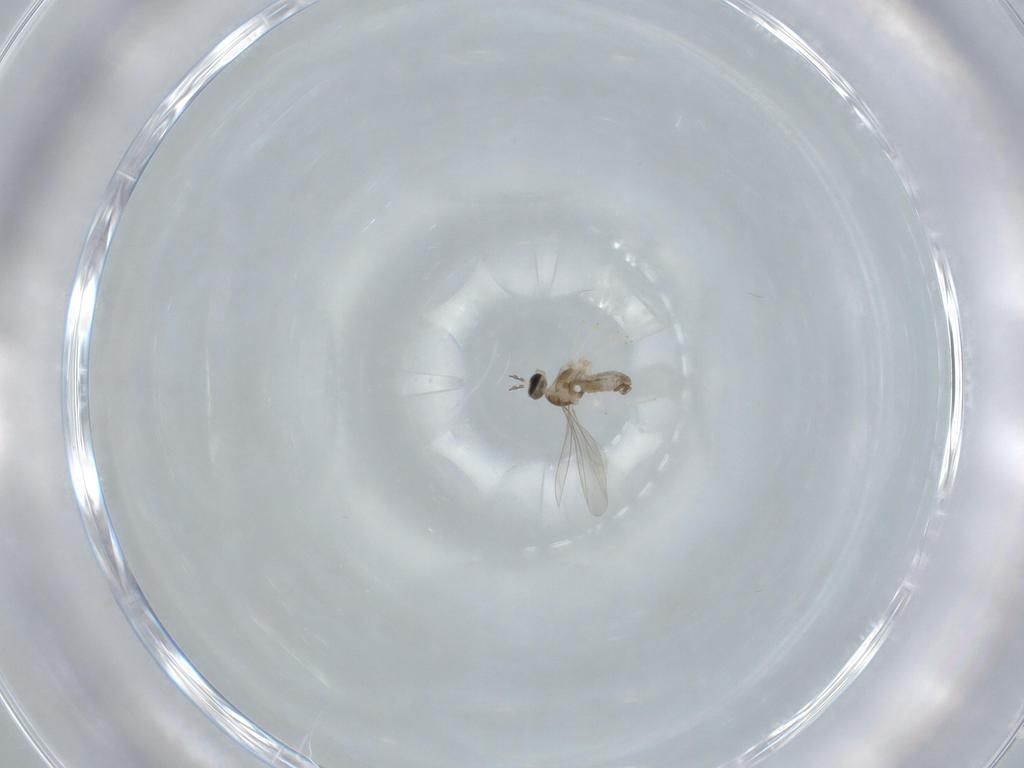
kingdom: Animalia
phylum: Arthropoda
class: Insecta
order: Diptera
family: Cecidomyiidae
